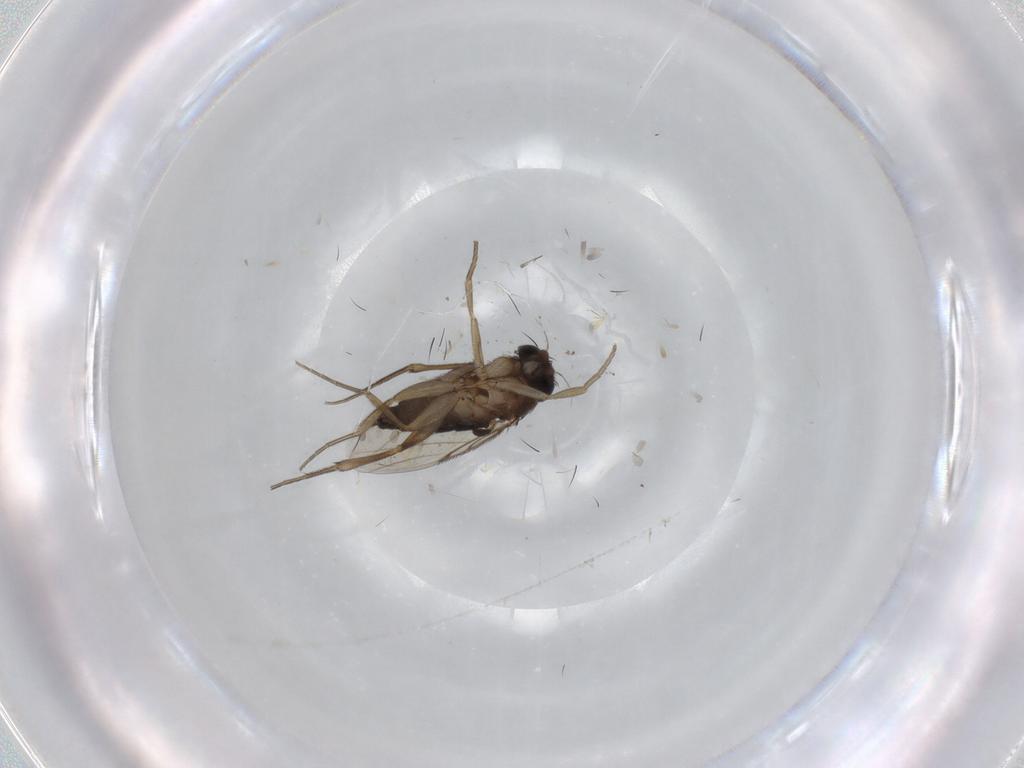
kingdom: Animalia
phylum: Arthropoda
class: Insecta
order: Diptera
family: Phoridae
